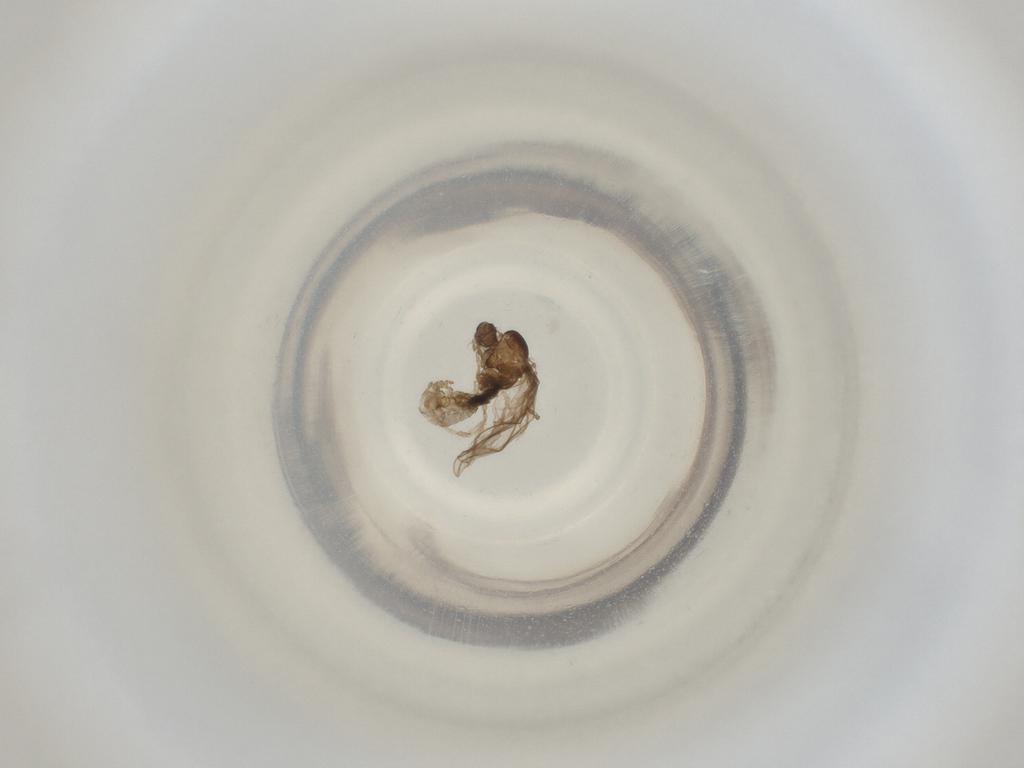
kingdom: Animalia
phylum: Arthropoda
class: Insecta
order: Diptera
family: Cecidomyiidae
